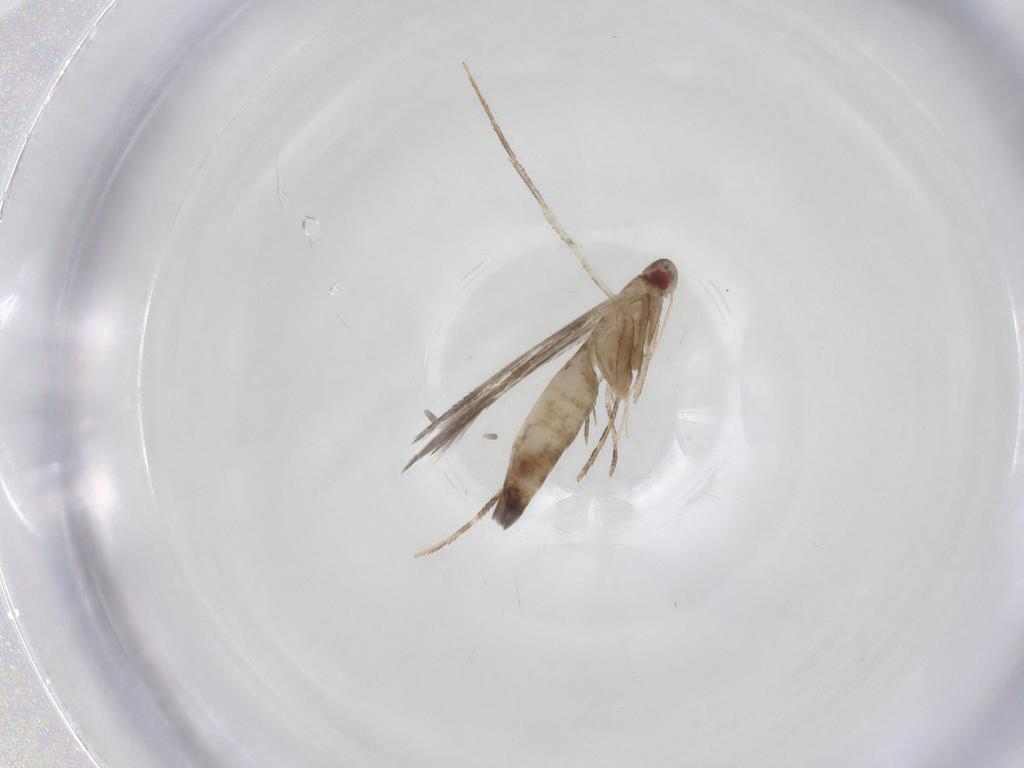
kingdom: Animalia
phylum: Arthropoda
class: Insecta
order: Lepidoptera
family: Cosmopterigidae
